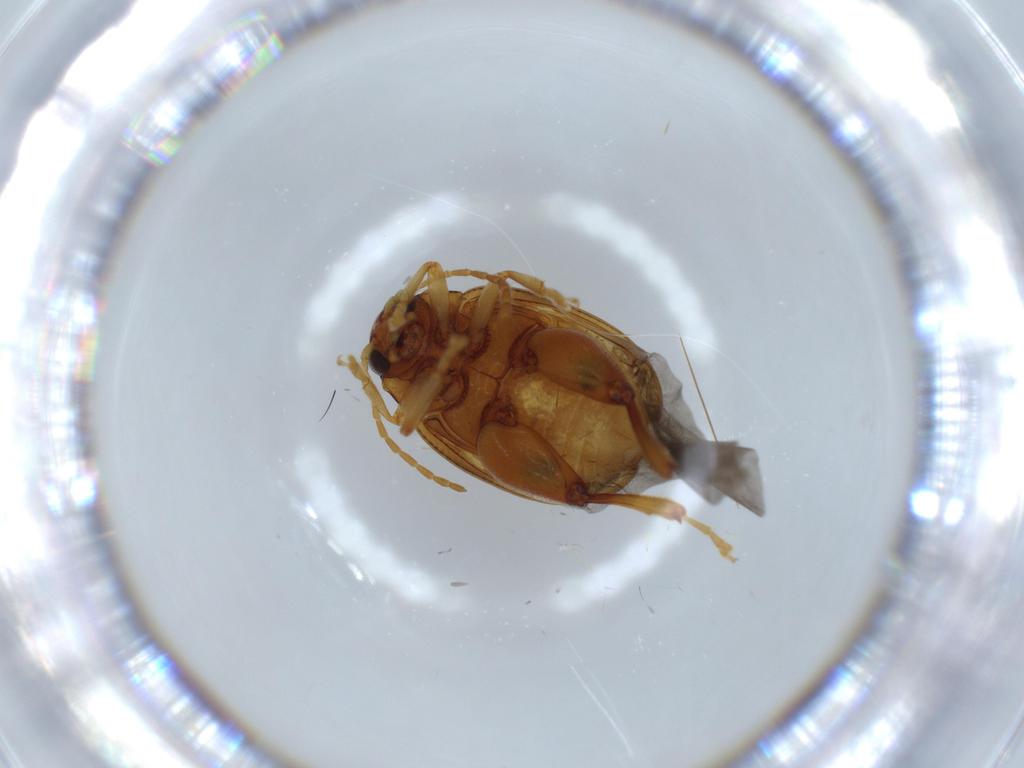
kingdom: Animalia
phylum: Arthropoda
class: Insecta
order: Coleoptera
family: Chrysomelidae
